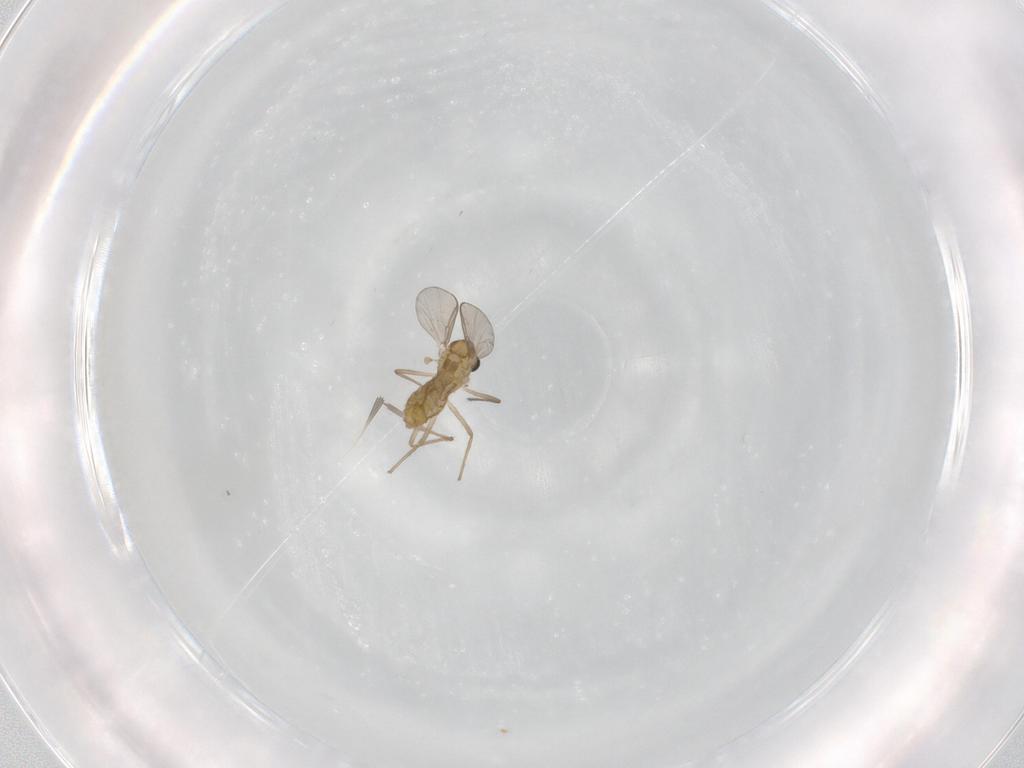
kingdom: Animalia
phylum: Arthropoda
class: Insecta
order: Diptera
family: Chironomidae
